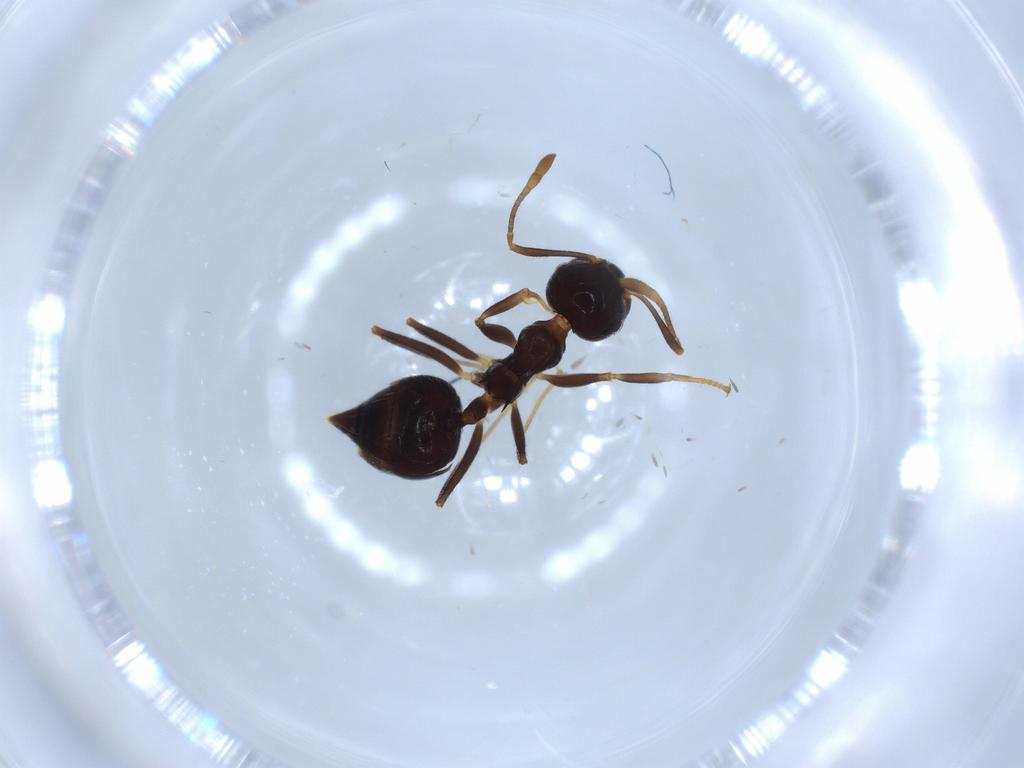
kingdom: Animalia
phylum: Arthropoda
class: Insecta
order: Hymenoptera
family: Formicidae
